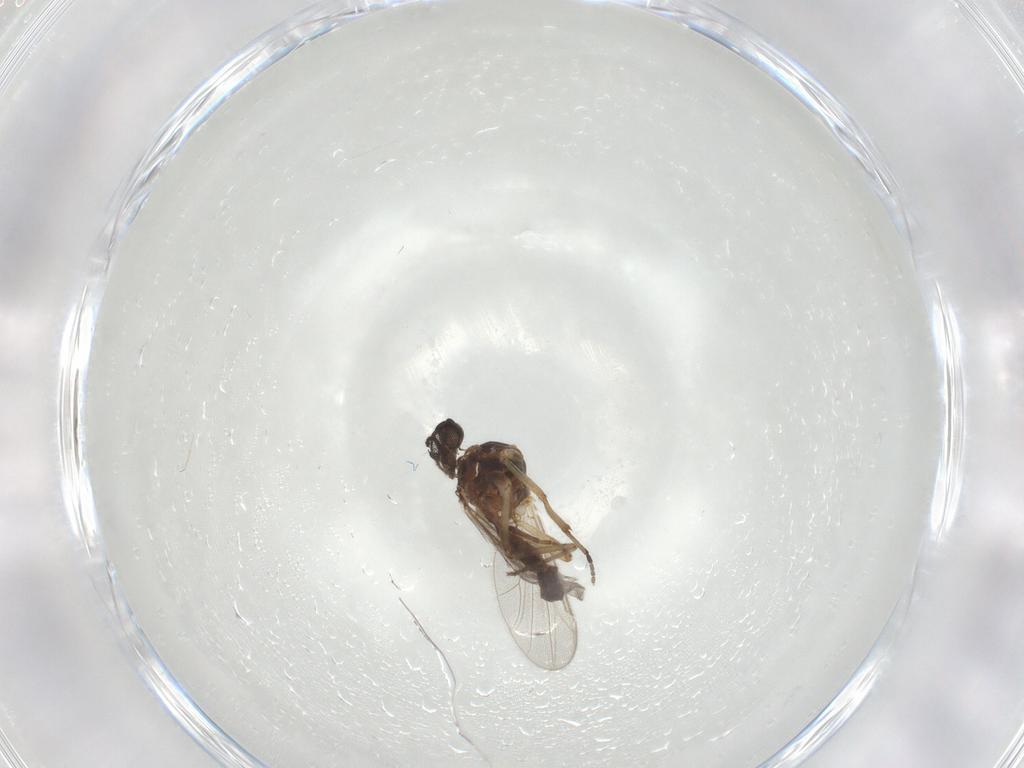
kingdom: Animalia
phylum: Arthropoda
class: Insecta
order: Diptera
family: Ceratopogonidae
